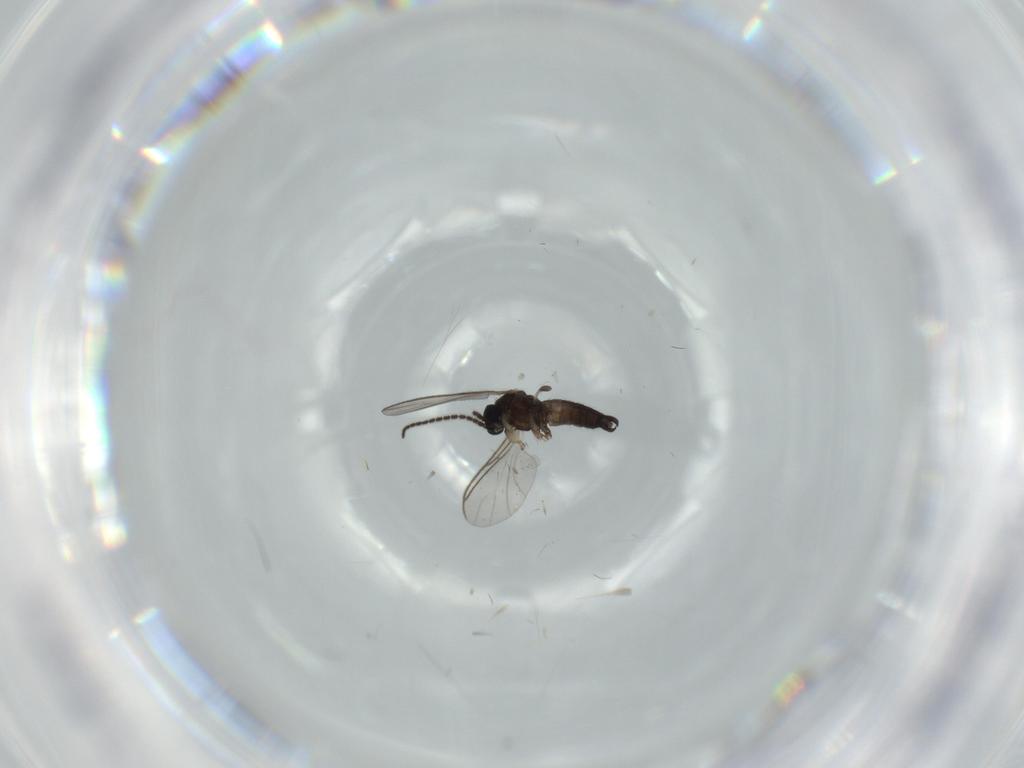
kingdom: Animalia
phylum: Arthropoda
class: Insecta
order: Diptera
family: Sciaridae
